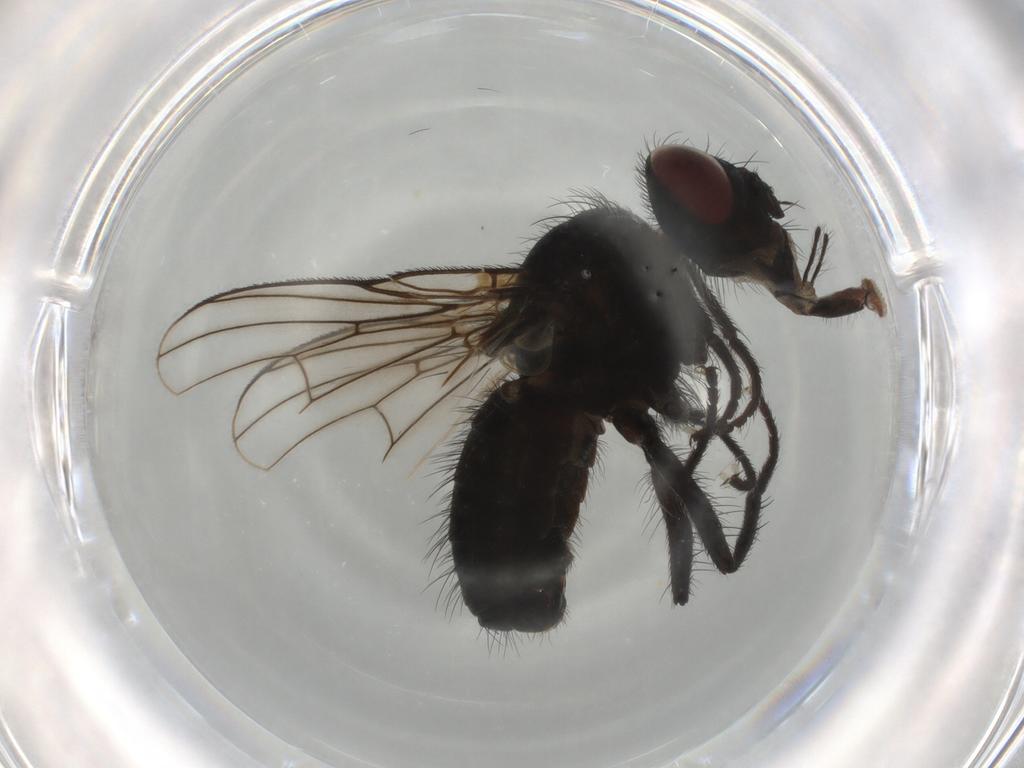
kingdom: Animalia
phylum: Arthropoda
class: Insecta
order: Diptera
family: Muscidae
